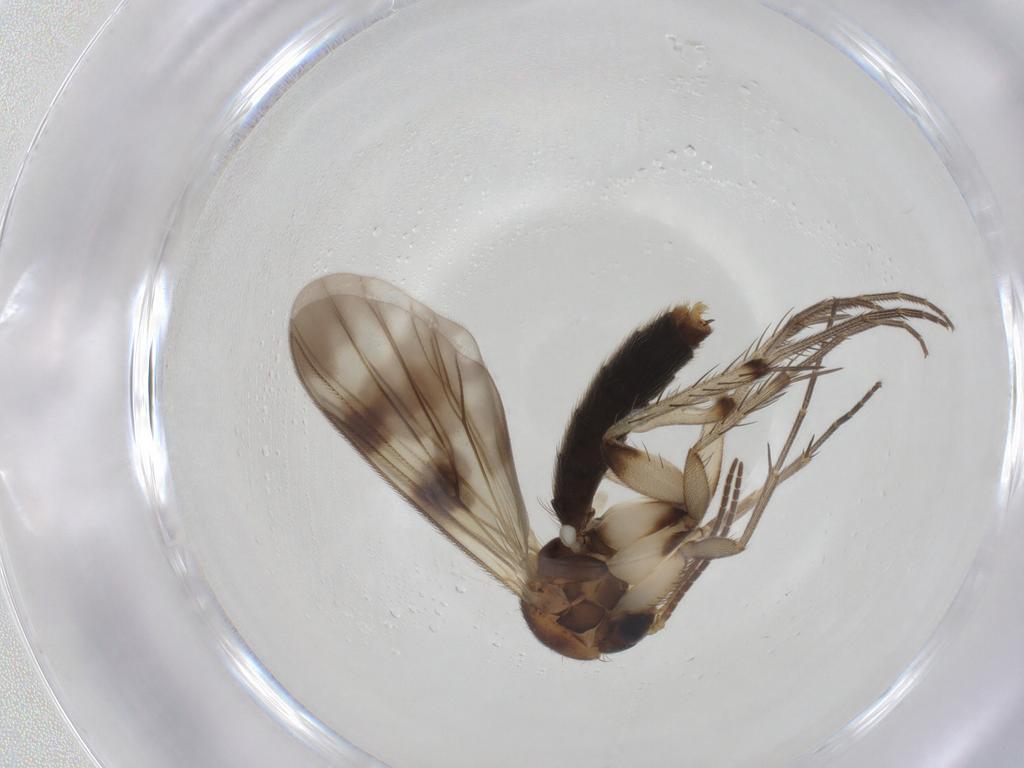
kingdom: Animalia
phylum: Arthropoda
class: Insecta
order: Diptera
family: Mycetophilidae
